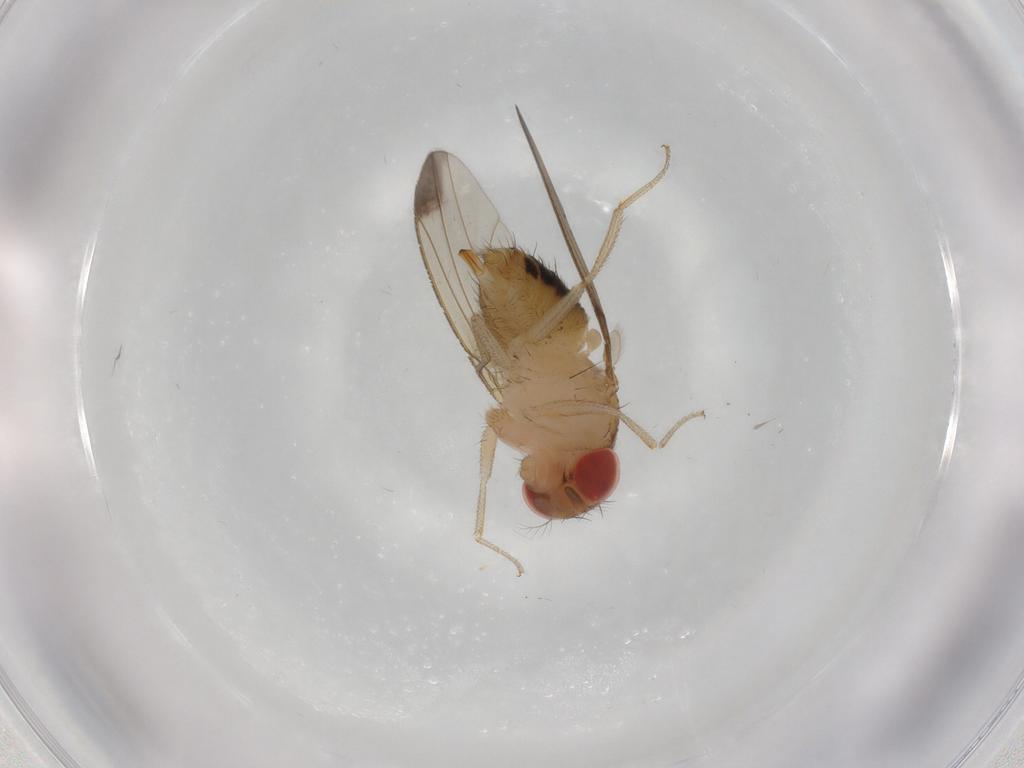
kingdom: Animalia
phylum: Arthropoda
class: Insecta
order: Diptera
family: Drosophilidae
